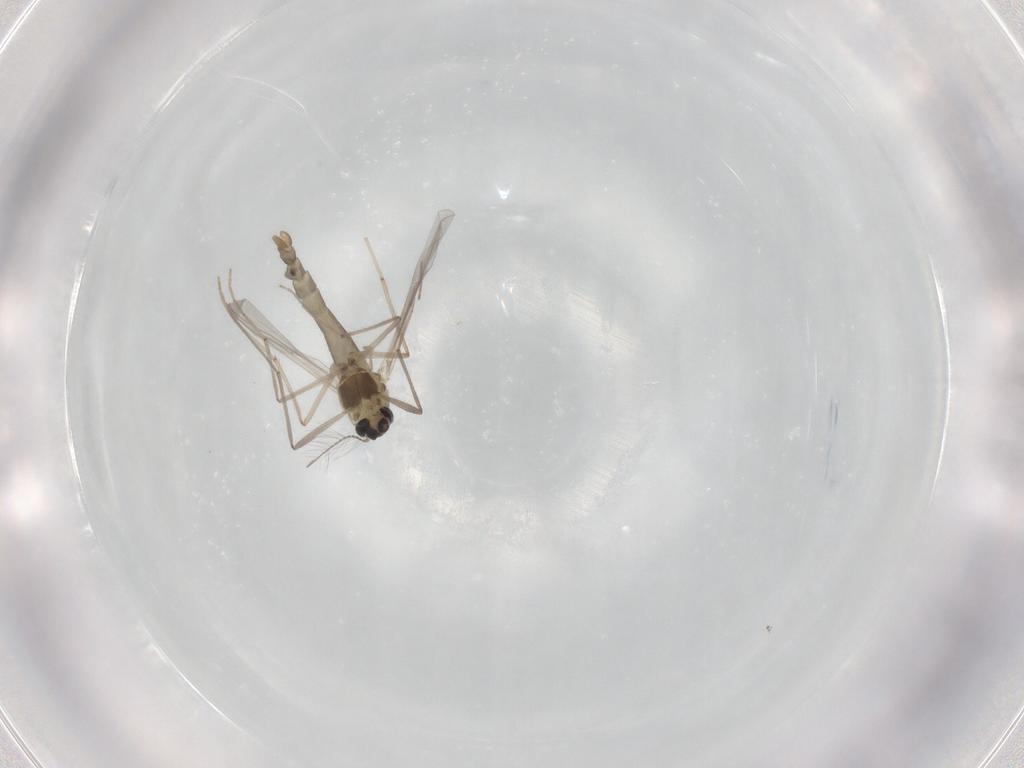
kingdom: Animalia
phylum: Arthropoda
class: Insecta
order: Diptera
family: Chironomidae
